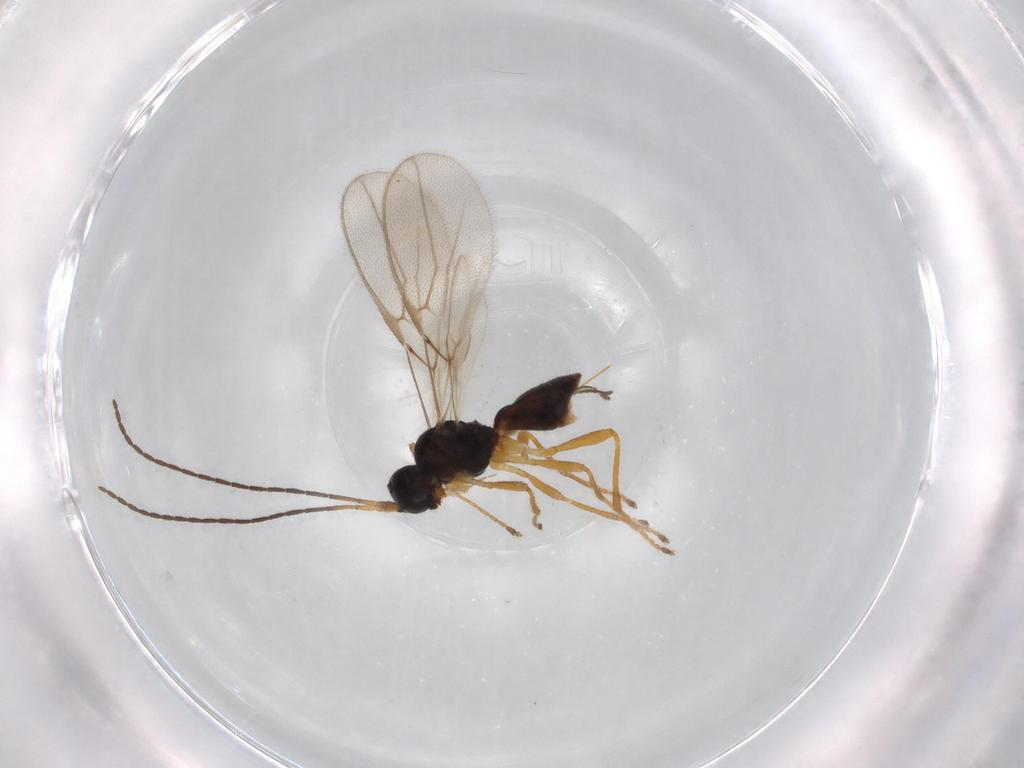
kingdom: Animalia
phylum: Arthropoda
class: Insecta
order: Hymenoptera
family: Braconidae
